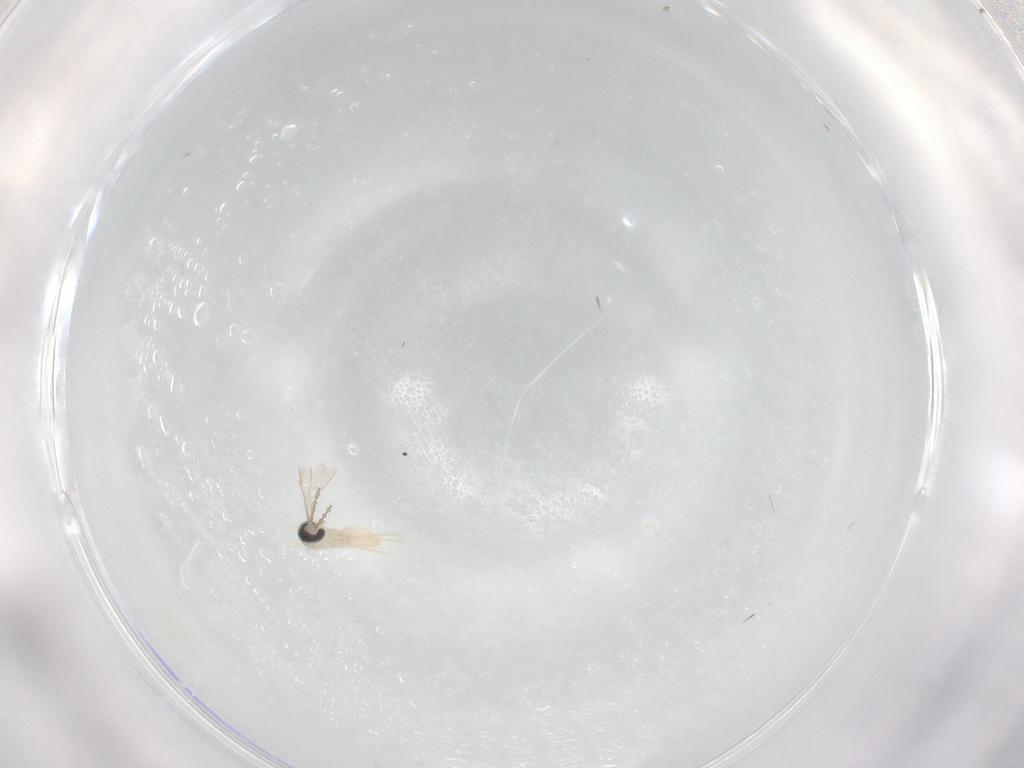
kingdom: Animalia
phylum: Arthropoda
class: Insecta
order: Diptera
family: Cecidomyiidae
